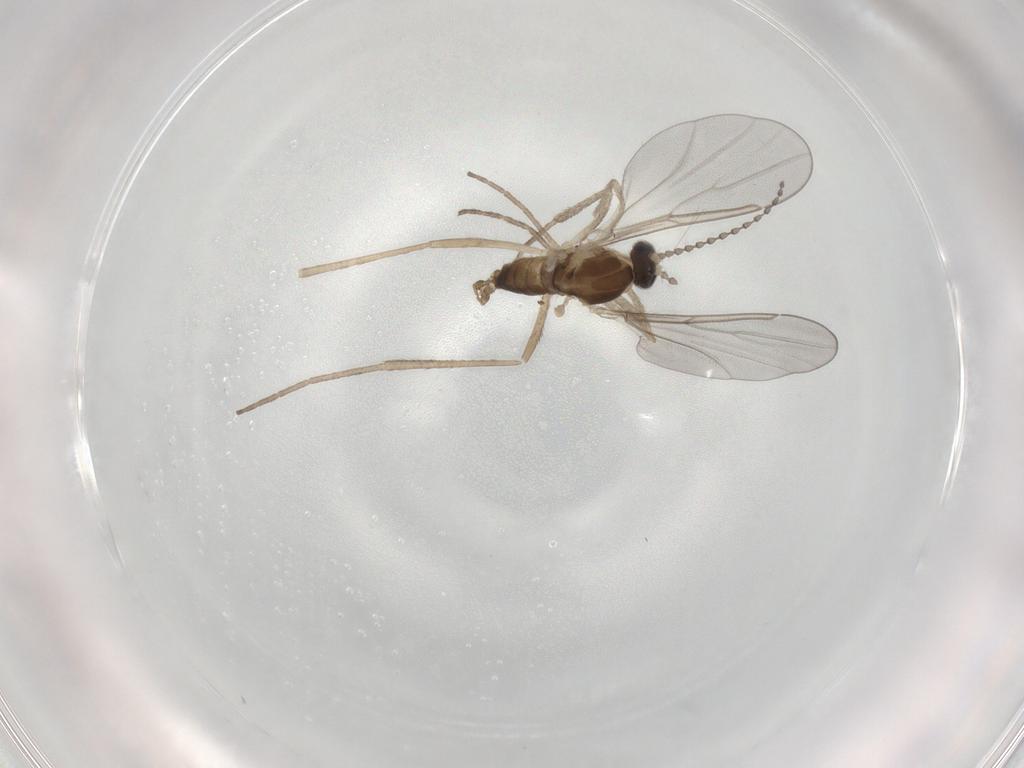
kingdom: Animalia
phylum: Arthropoda
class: Insecta
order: Diptera
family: Cecidomyiidae
